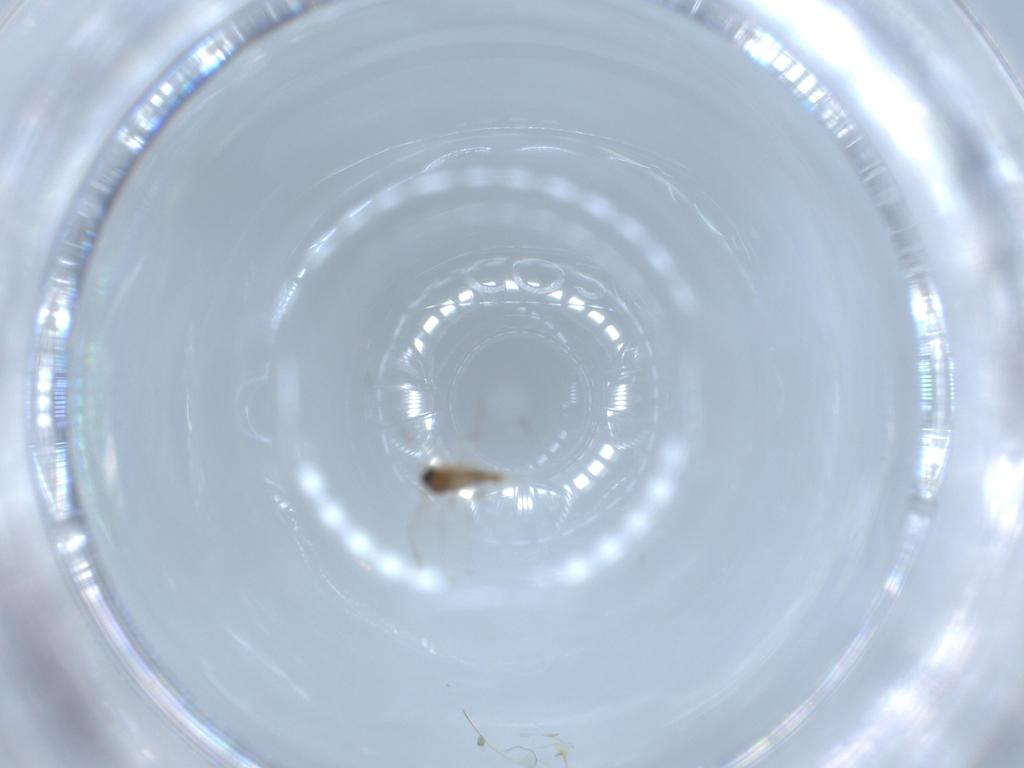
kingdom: Animalia
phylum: Arthropoda
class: Insecta
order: Diptera
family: Phoridae
